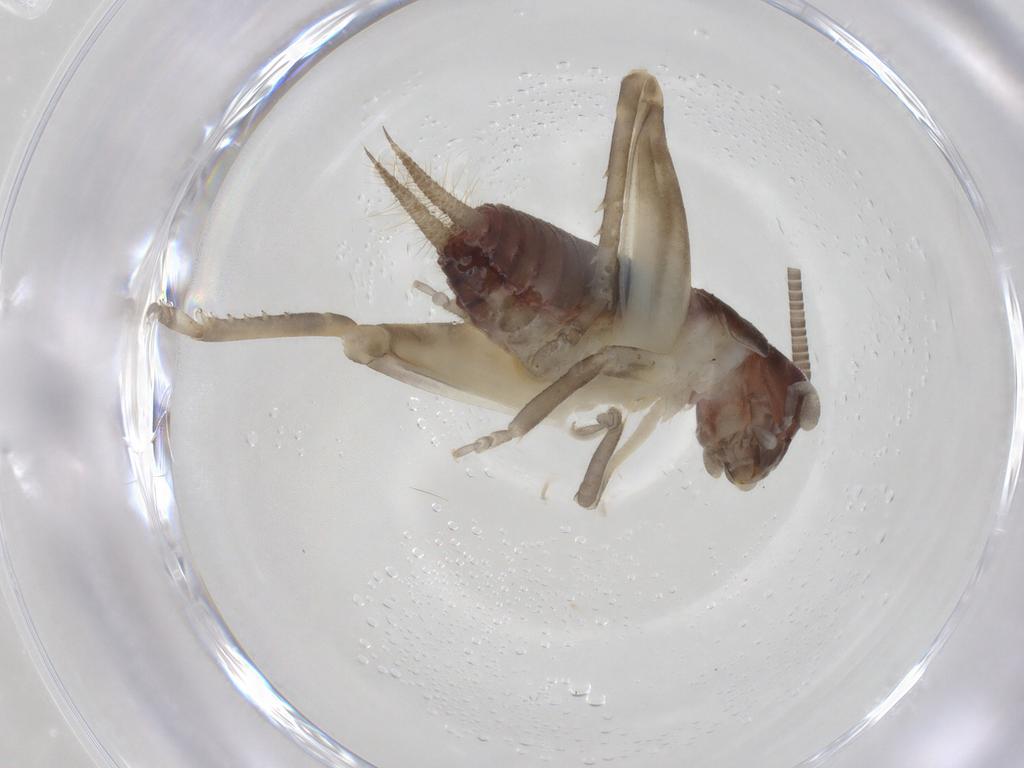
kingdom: Animalia
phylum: Arthropoda
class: Insecta
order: Orthoptera
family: Gryllidae
